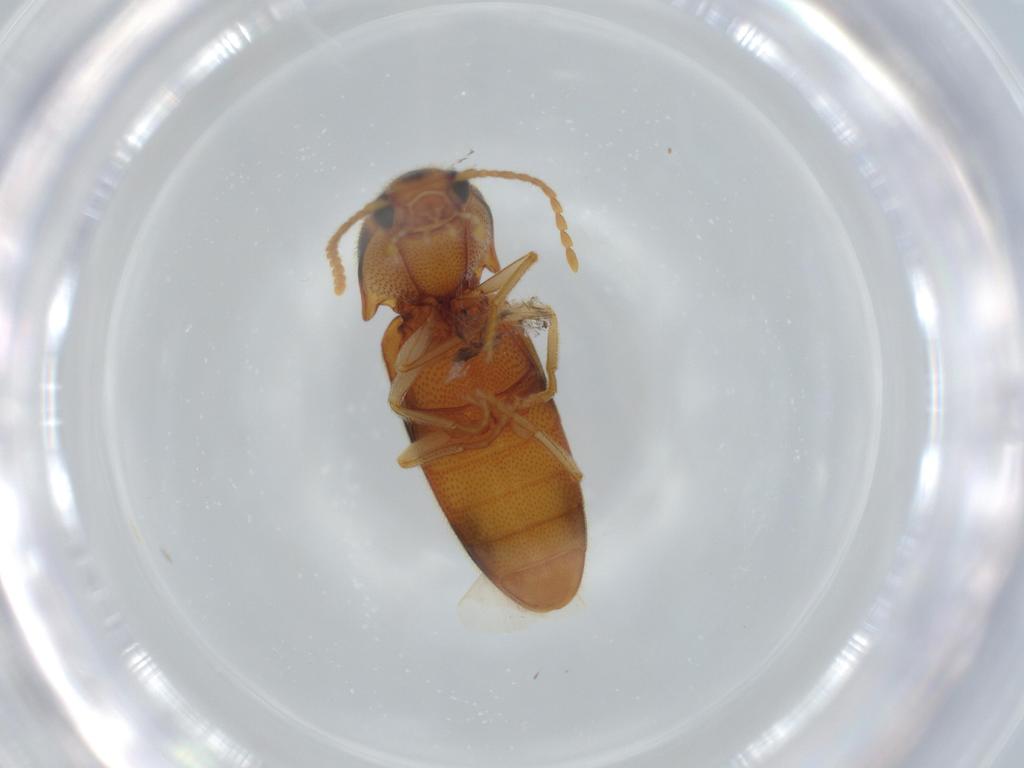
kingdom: Animalia
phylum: Arthropoda
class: Insecta
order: Coleoptera
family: Elateridae
